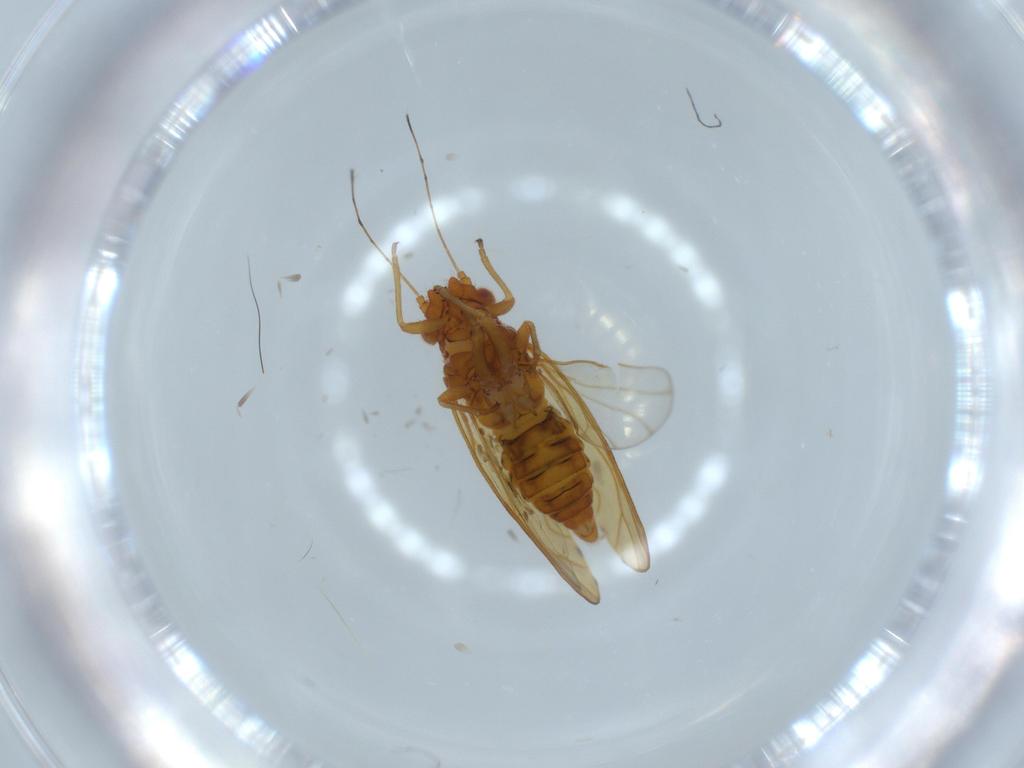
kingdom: Animalia
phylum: Arthropoda
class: Insecta
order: Hemiptera
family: Psylloidea_incertae_sedis
